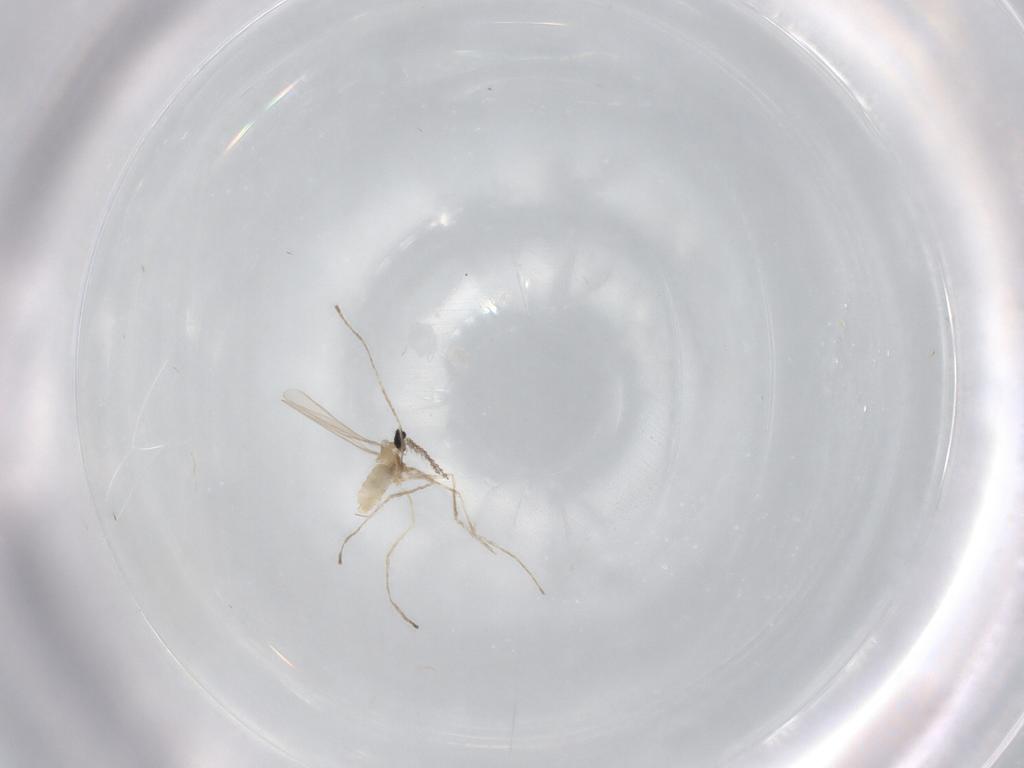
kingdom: Animalia
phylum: Arthropoda
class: Insecta
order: Diptera
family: Phoridae
